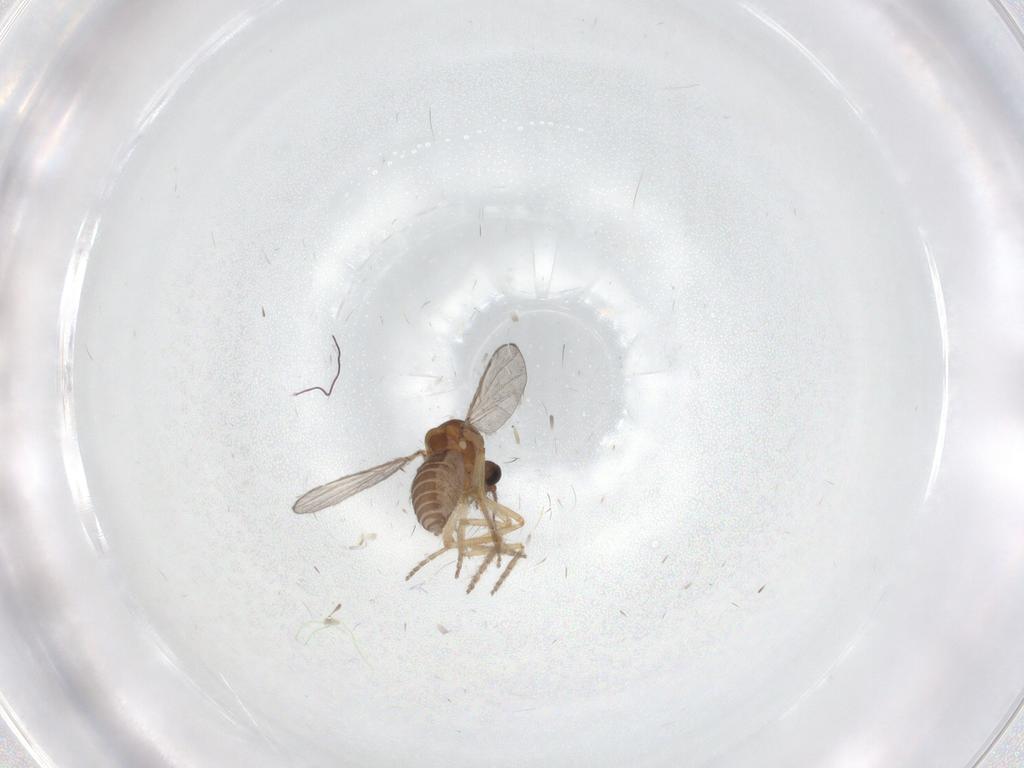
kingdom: Animalia
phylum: Arthropoda
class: Insecta
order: Diptera
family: Ceratopogonidae
